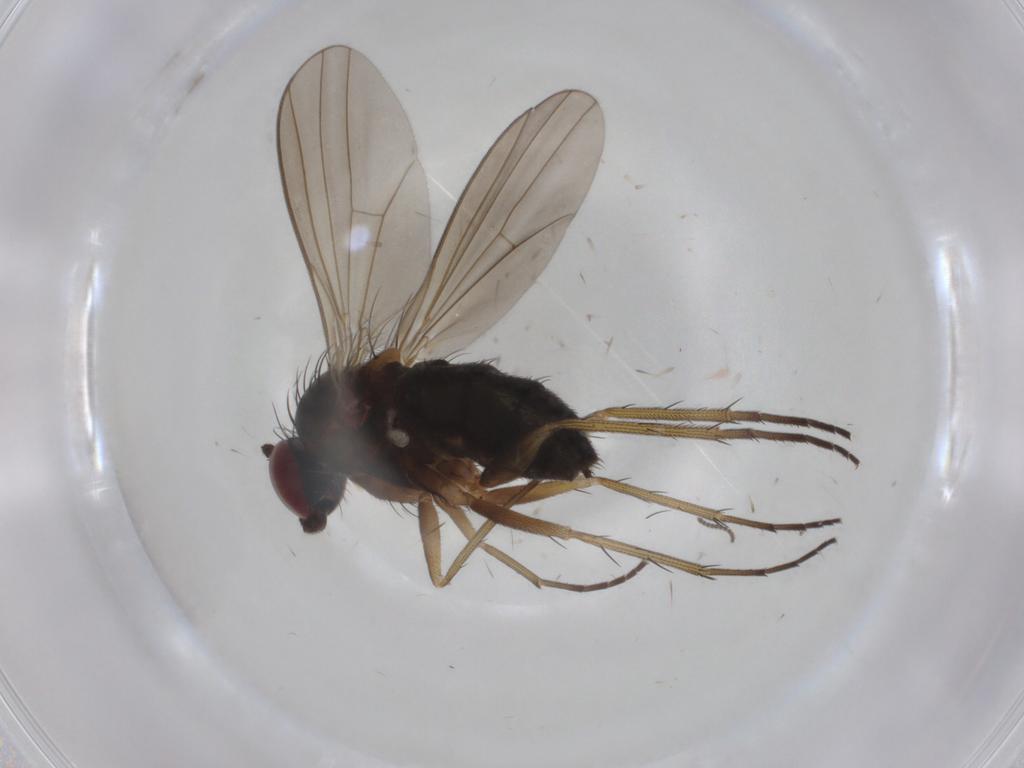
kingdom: Animalia
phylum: Arthropoda
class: Insecta
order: Diptera
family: Dolichopodidae
